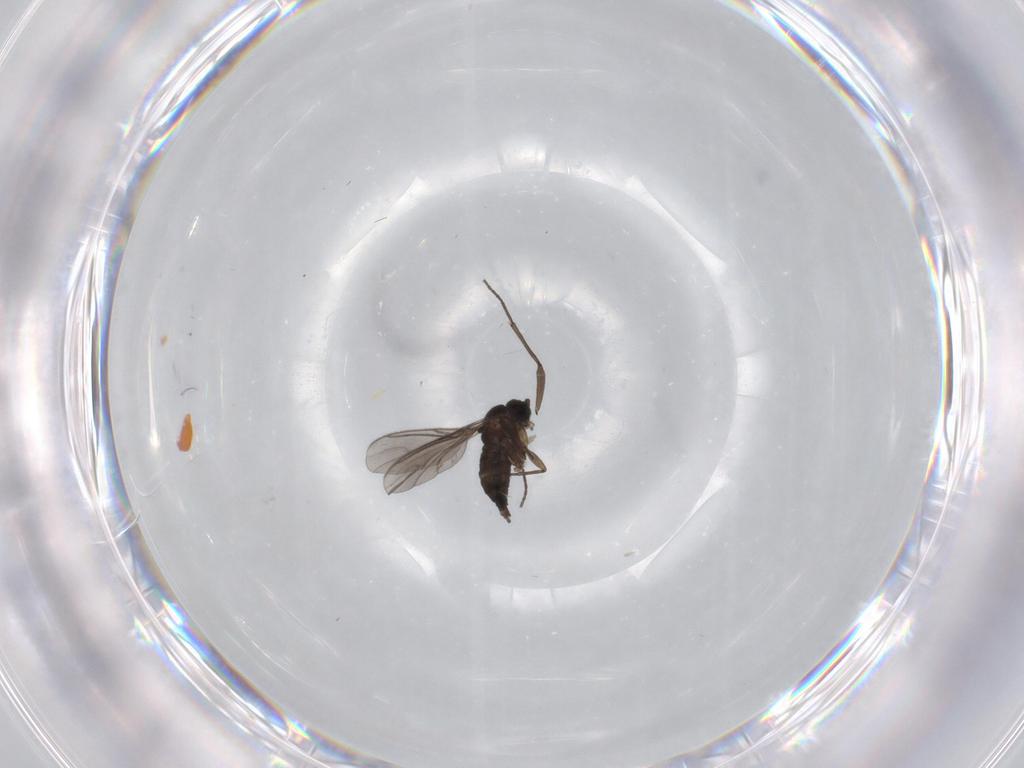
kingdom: Animalia
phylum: Arthropoda
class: Insecta
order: Diptera
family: Sciaridae
